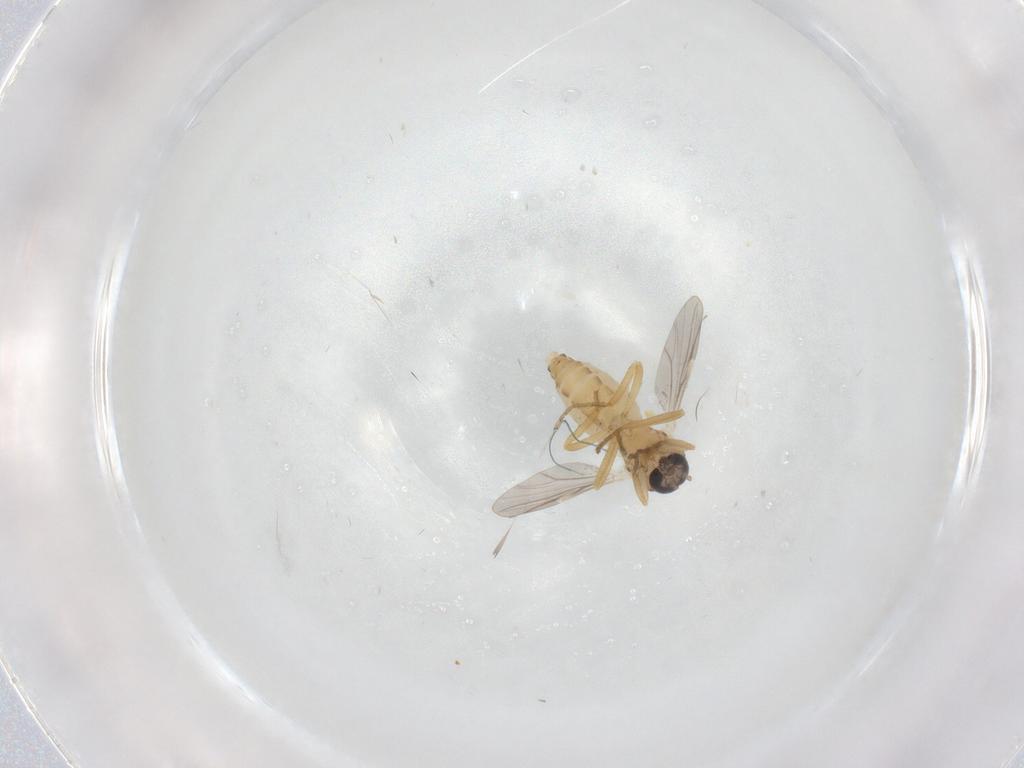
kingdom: Animalia
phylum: Arthropoda
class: Insecta
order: Diptera
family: Ceratopogonidae
